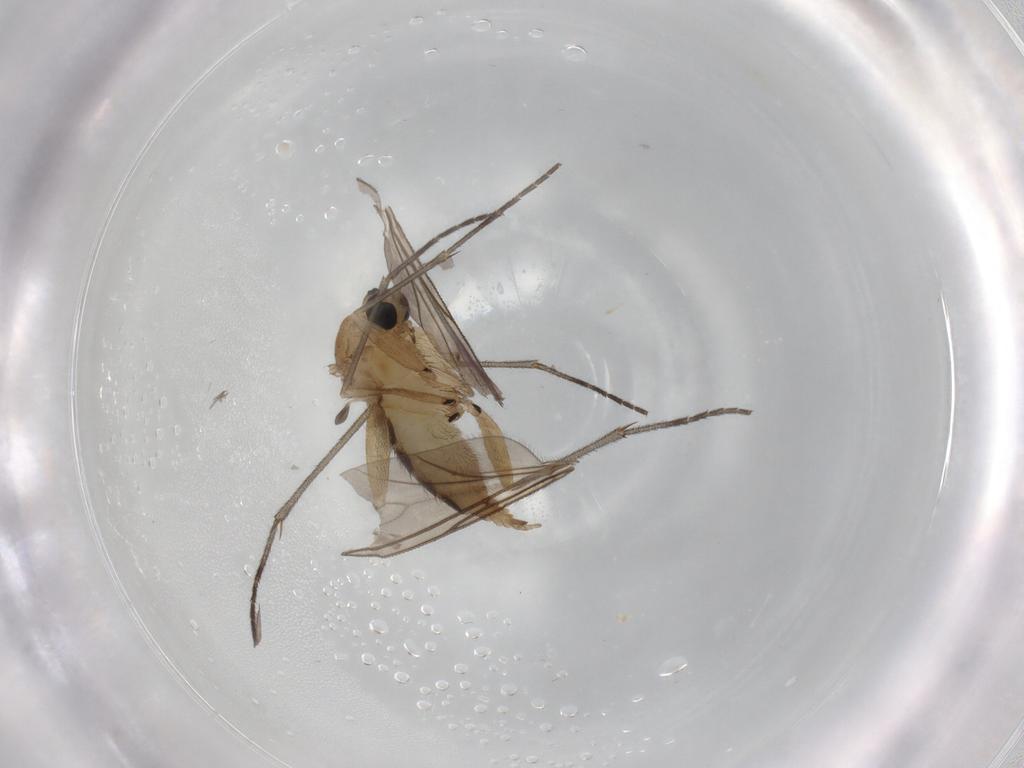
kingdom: Animalia
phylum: Arthropoda
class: Insecta
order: Diptera
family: Sciaridae
